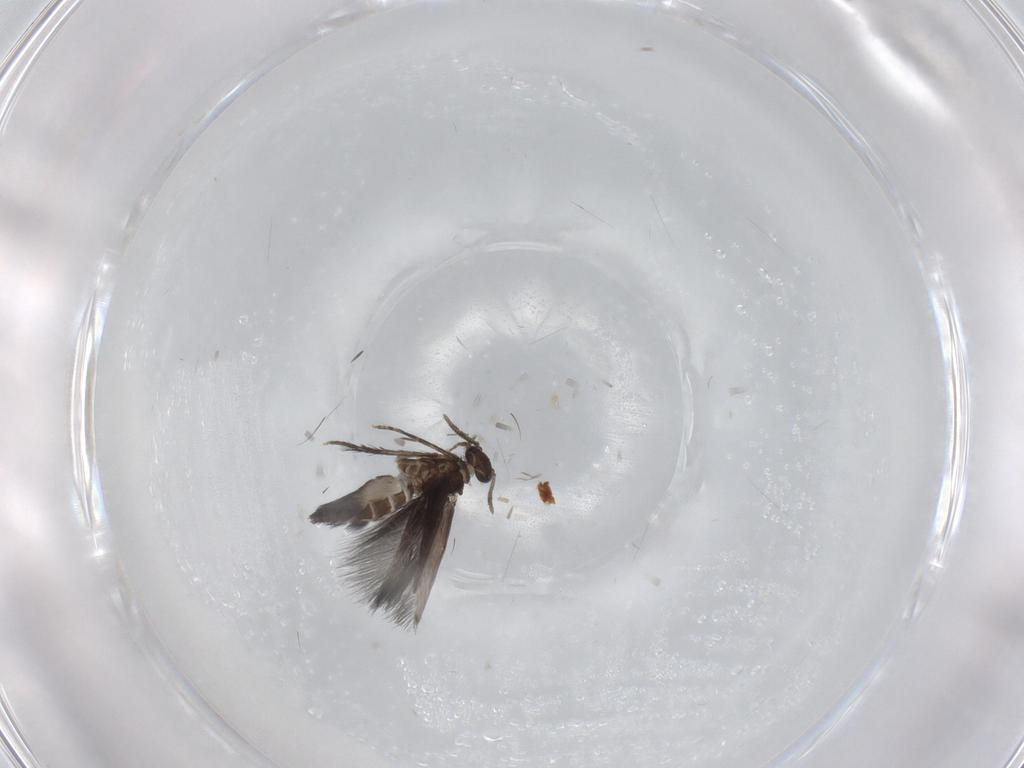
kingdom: Animalia
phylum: Arthropoda
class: Insecta
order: Trichoptera
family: Hydroptilidae
